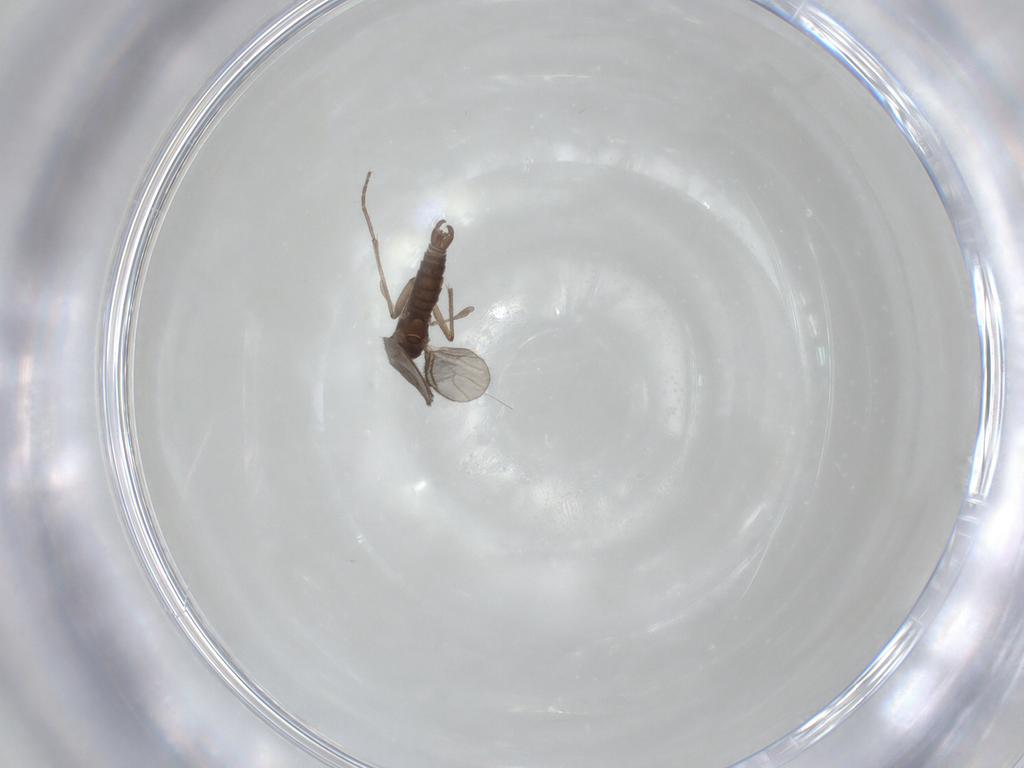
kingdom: Animalia
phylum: Arthropoda
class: Insecta
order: Diptera
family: Sciaridae
